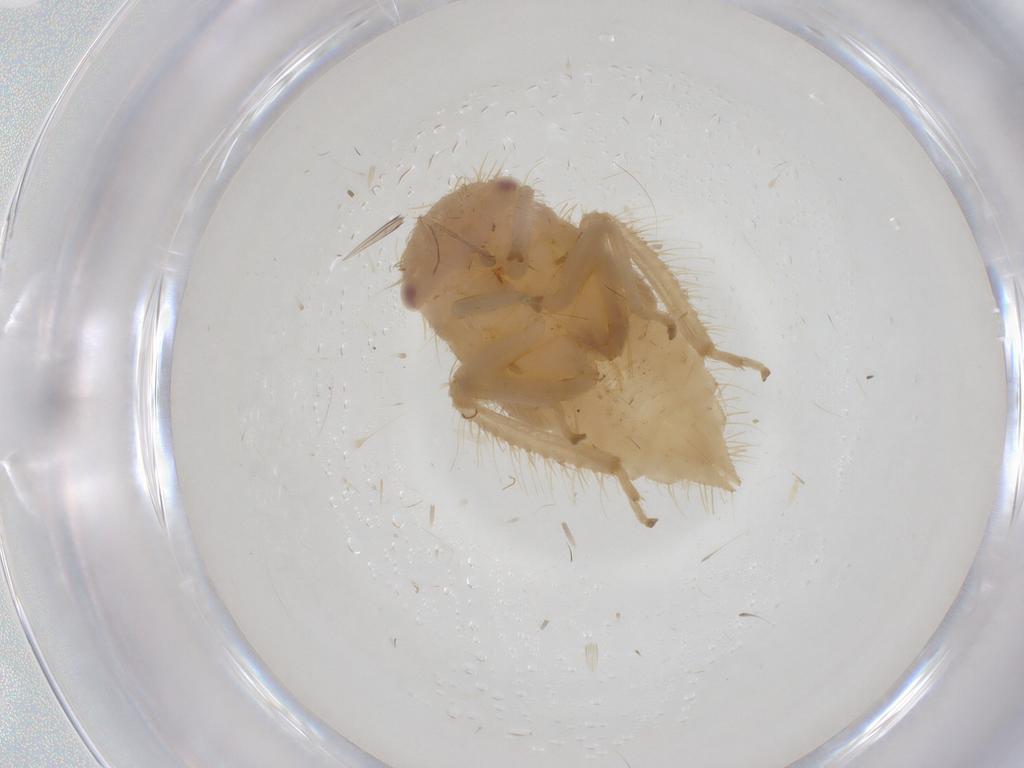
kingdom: Animalia
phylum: Arthropoda
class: Insecta
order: Hemiptera
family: Cicadellidae
